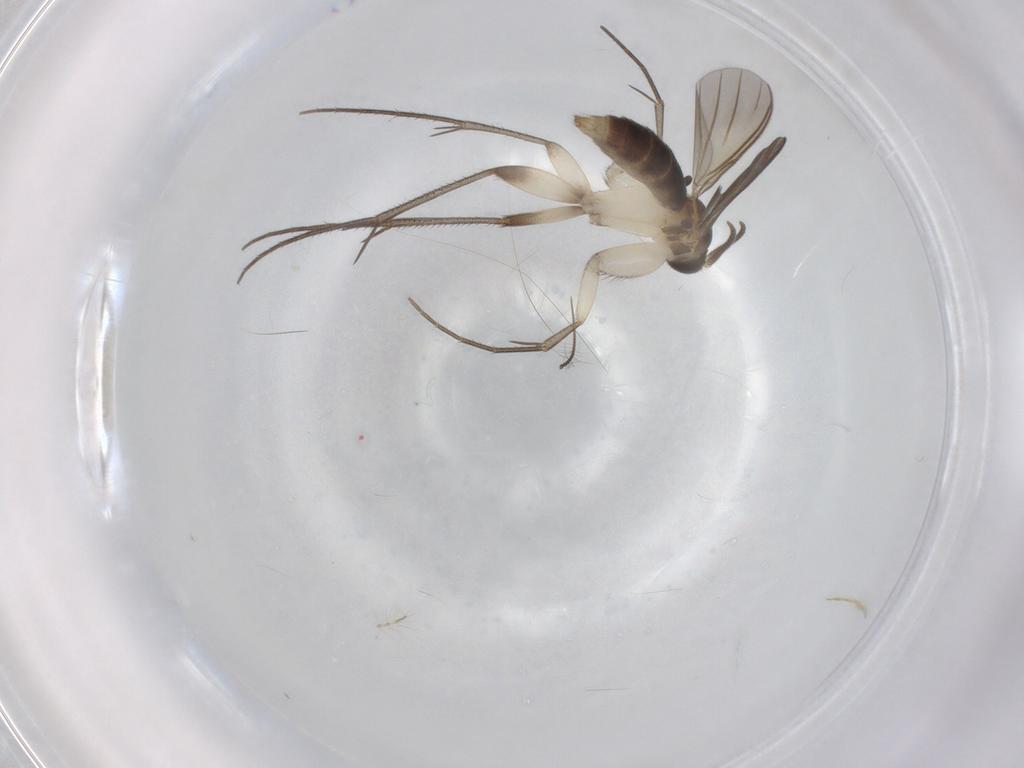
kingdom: Animalia
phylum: Arthropoda
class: Insecta
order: Diptera
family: Mycetophilidae
